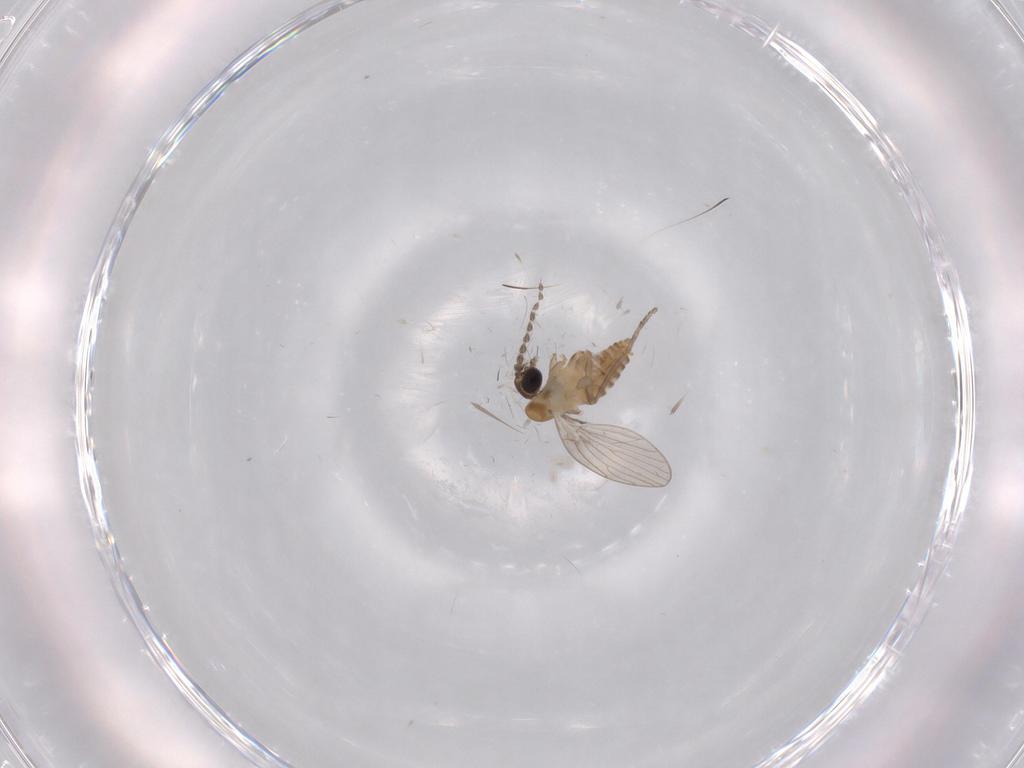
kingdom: Animalia
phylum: Arthropoda
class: Insecta
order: Diptera
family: Psychodidae
